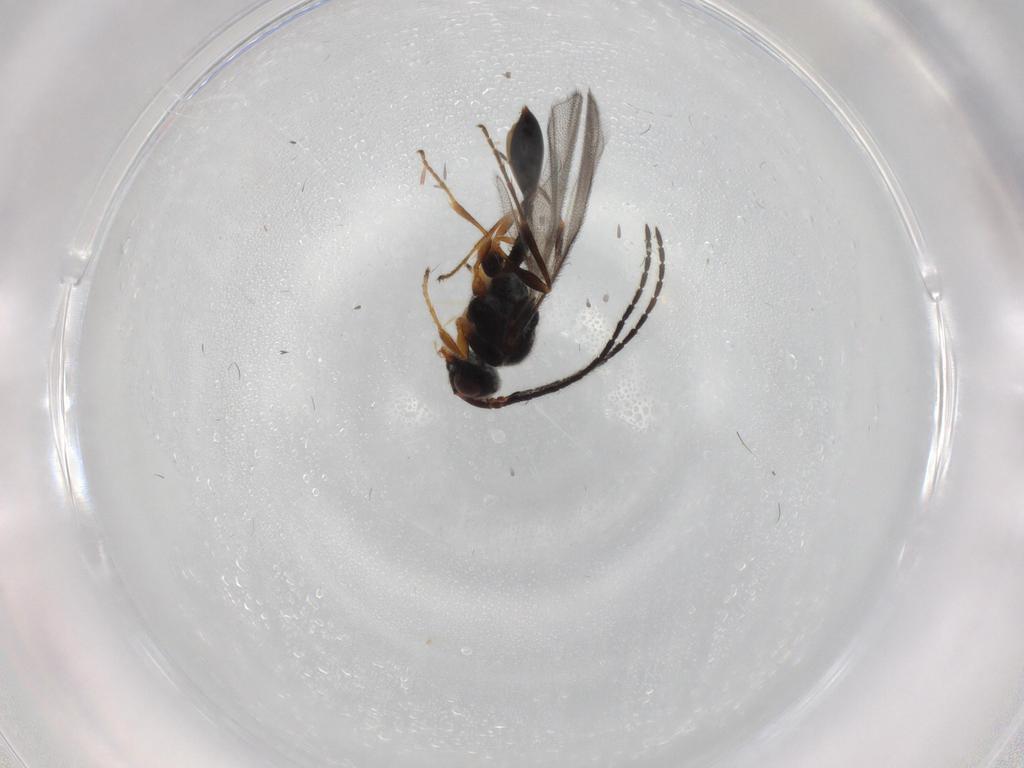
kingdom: Animalia
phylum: Arthropoda
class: Insecta
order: Hymenoptera
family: Diapriidae
